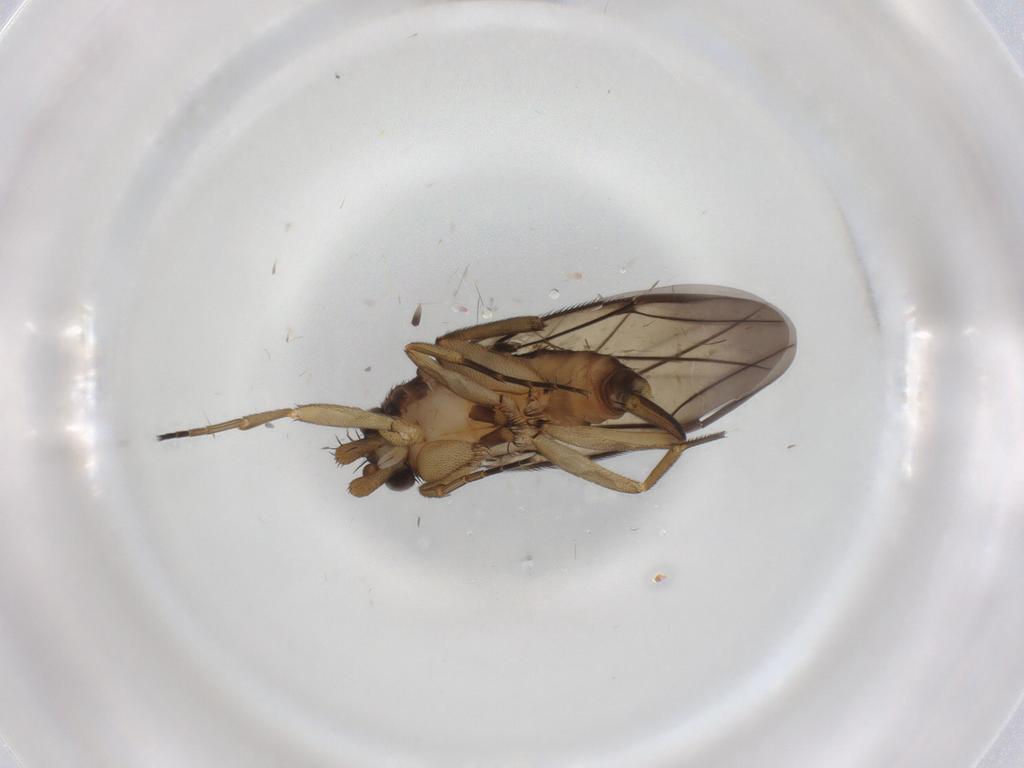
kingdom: Animalia
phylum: Arthropoda
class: Insecta
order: Diptera
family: Phoridae
